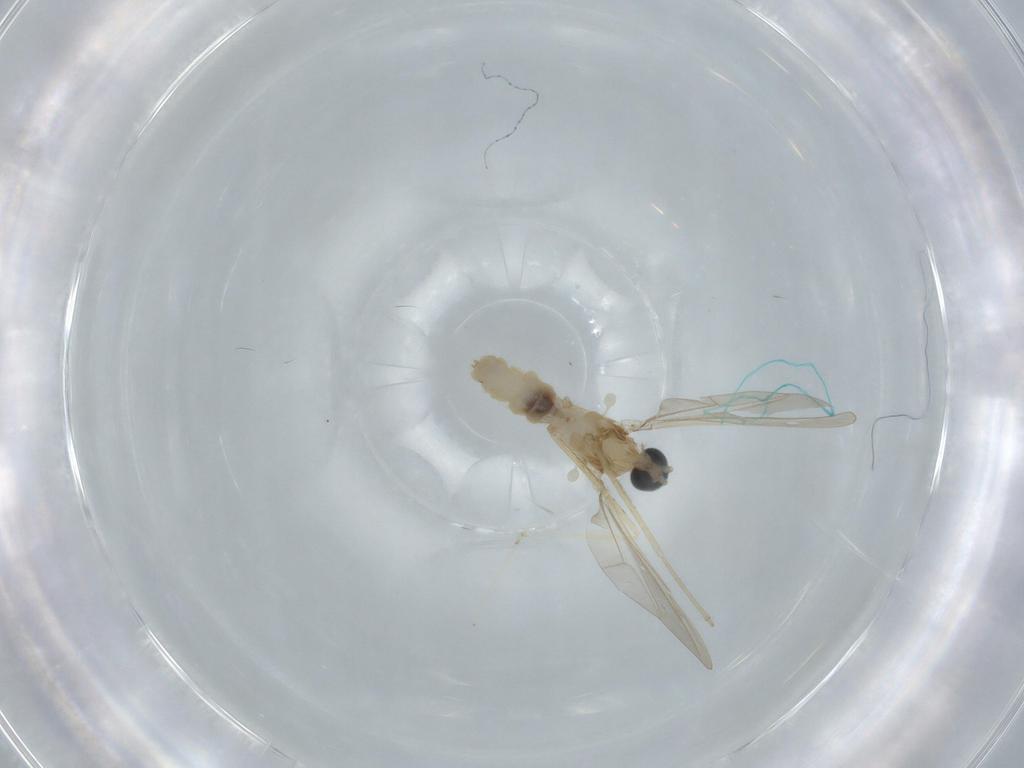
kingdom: Animalia
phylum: Arthropoda
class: Insecta
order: Diptera
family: Cecidomyiidae
